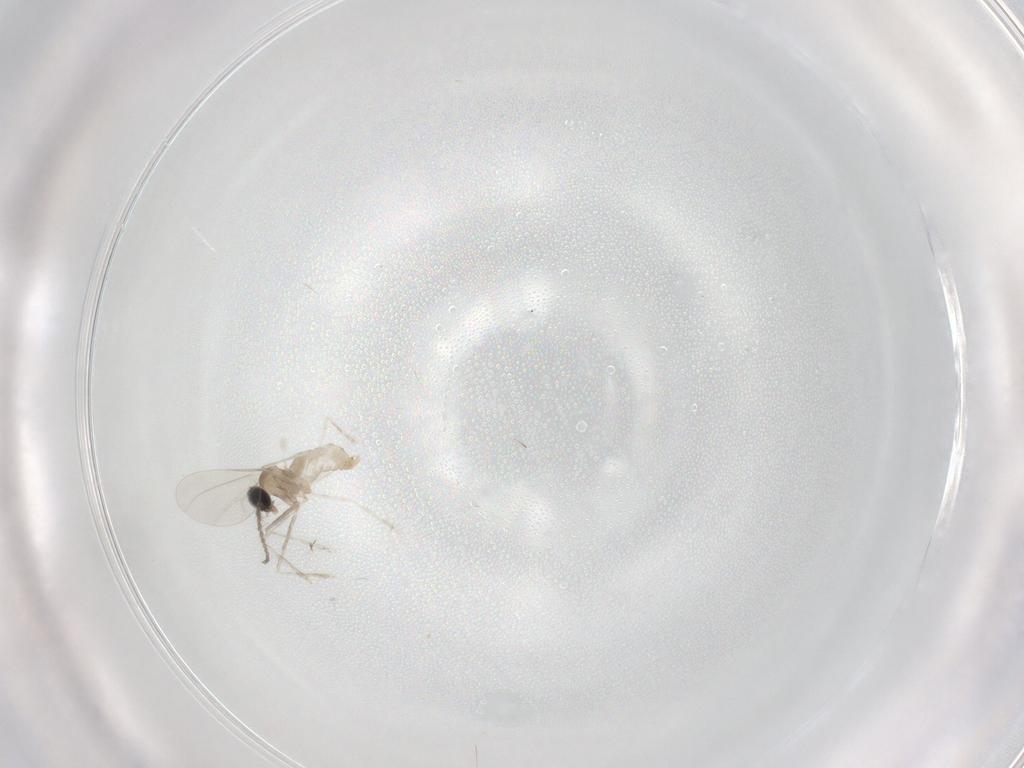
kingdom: Animalia
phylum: Arthropoda
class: Insecta
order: Diptera
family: Cecidomyiidae
